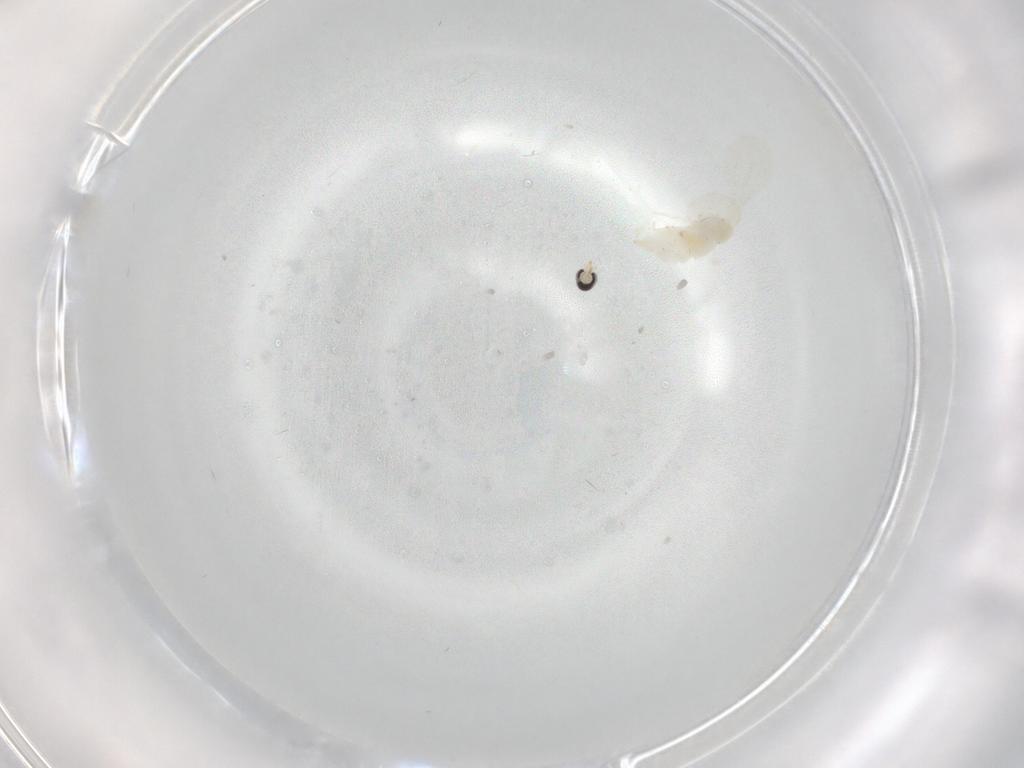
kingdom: Animalia
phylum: Arthropoda
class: Insecta
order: Diptera
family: Cecidomyiidae
